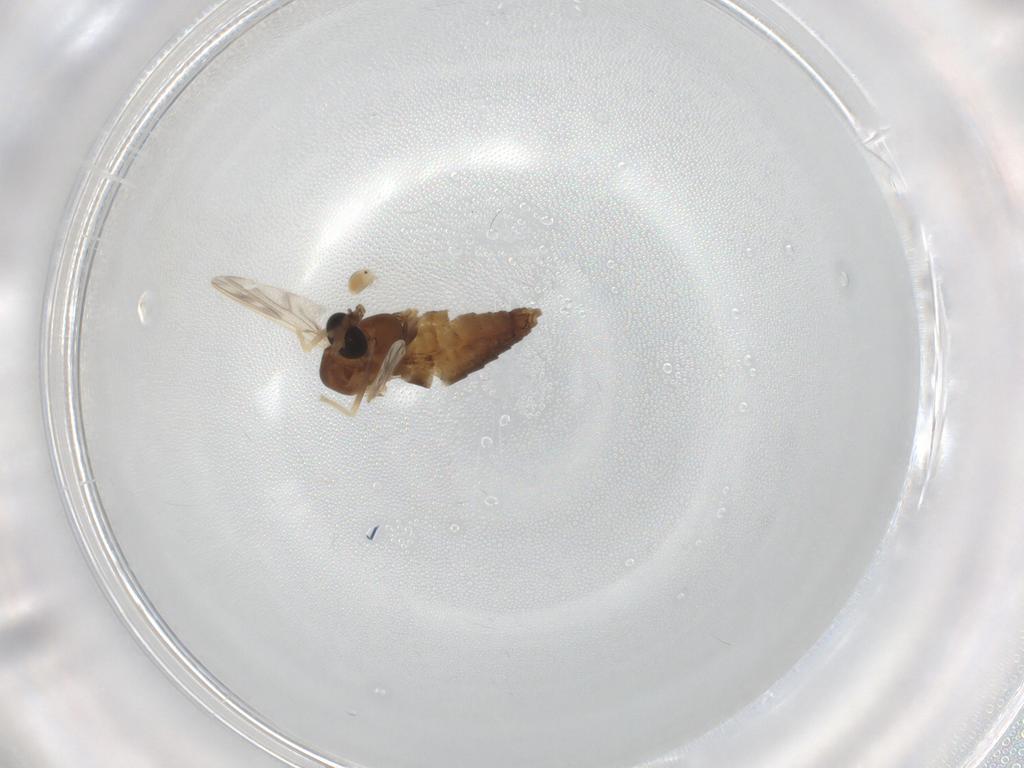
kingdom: Animalia
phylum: Arthropoda
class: Insecta
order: Diptera
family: Chironomidae
